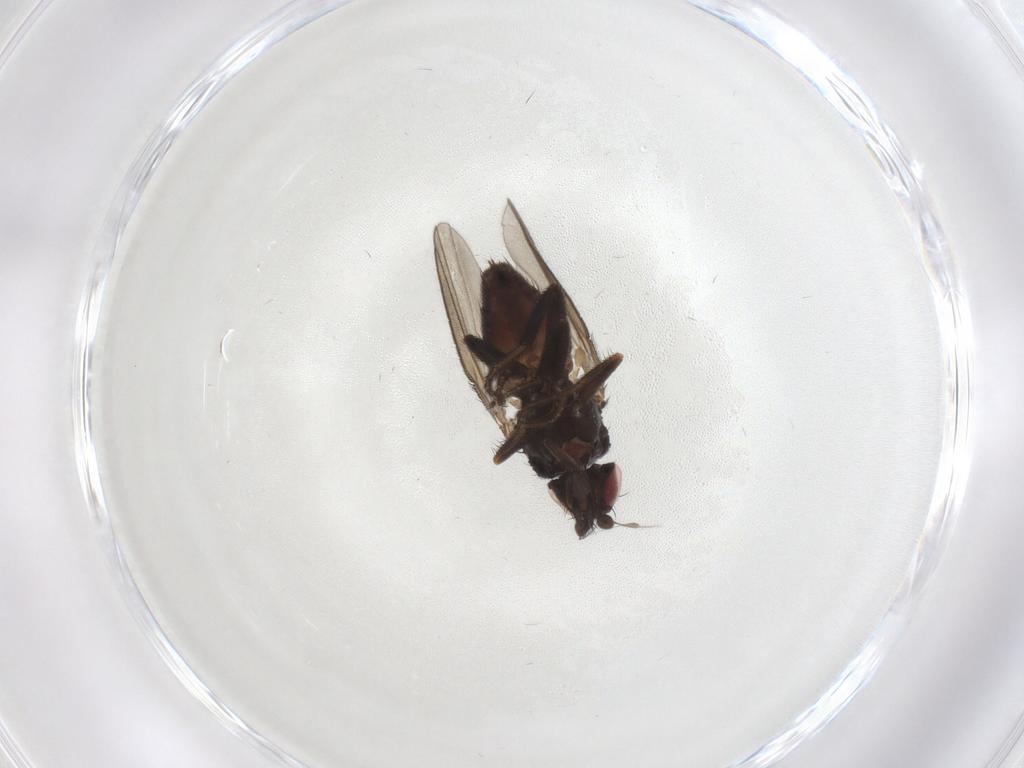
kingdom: Animalia
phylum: Arthropoda
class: Insecta
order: Diptera
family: Milichiidae
